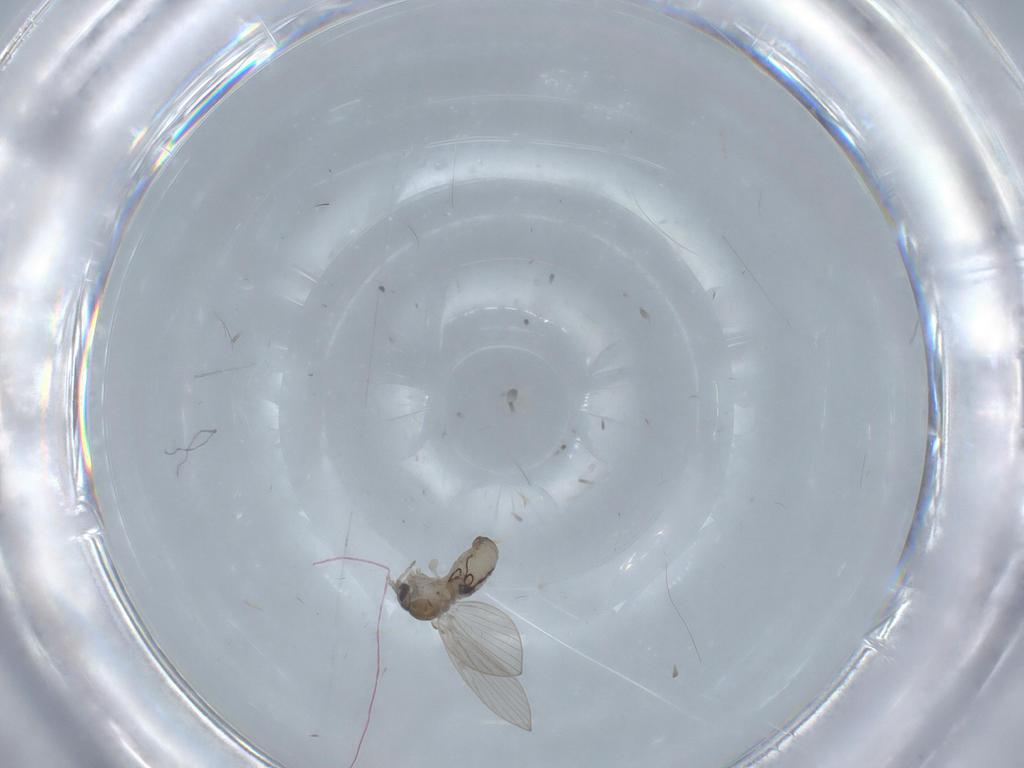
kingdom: Animalia
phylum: Arthropoda
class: Insecta
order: Diptera
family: Psychodidae
